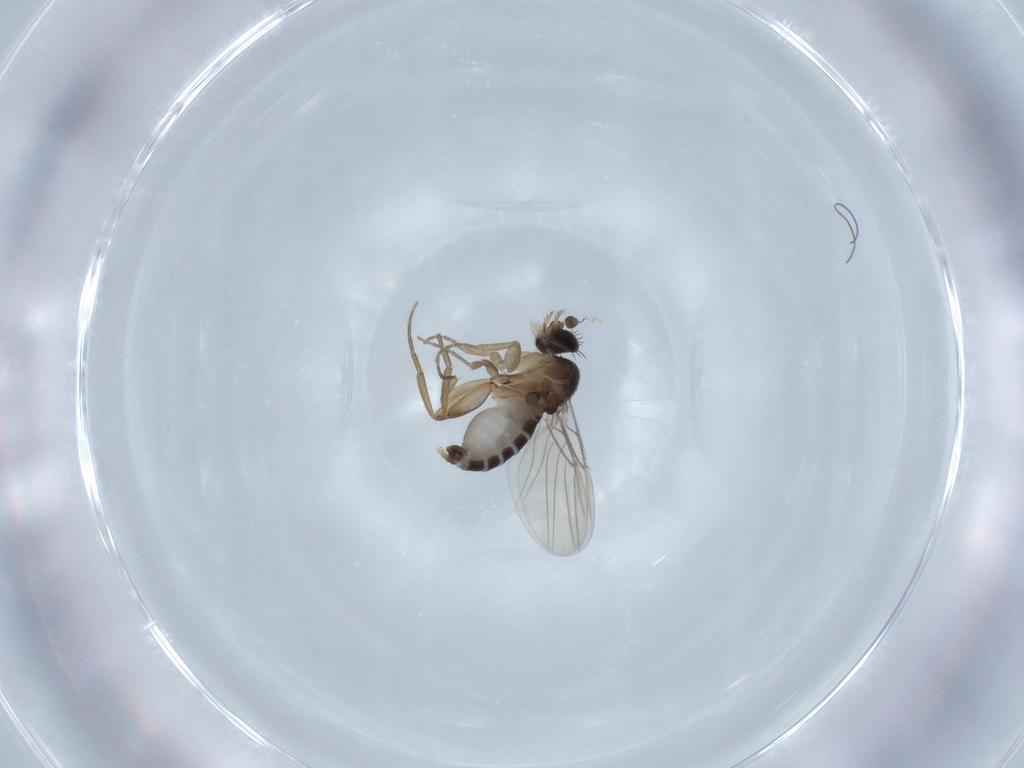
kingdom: Animalia
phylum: Arthropoda
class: Insecta
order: Diptera
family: Phoridae
